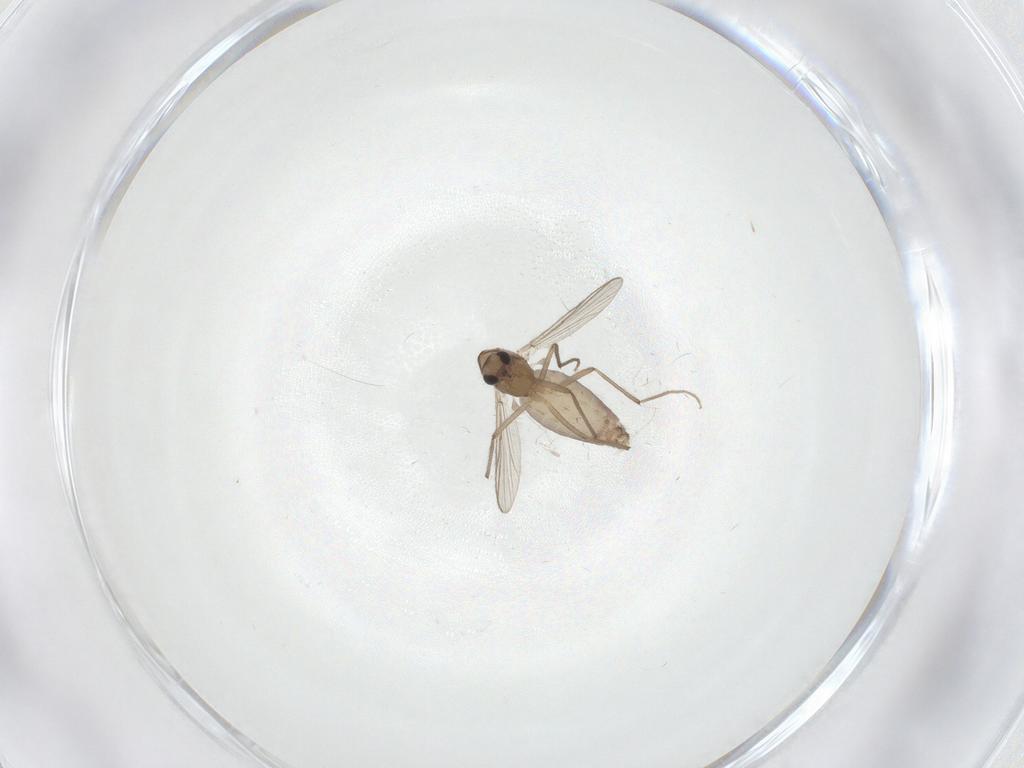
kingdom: Animalia
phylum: Arthropoda
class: Insecta
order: Diptera
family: Chironomidae
